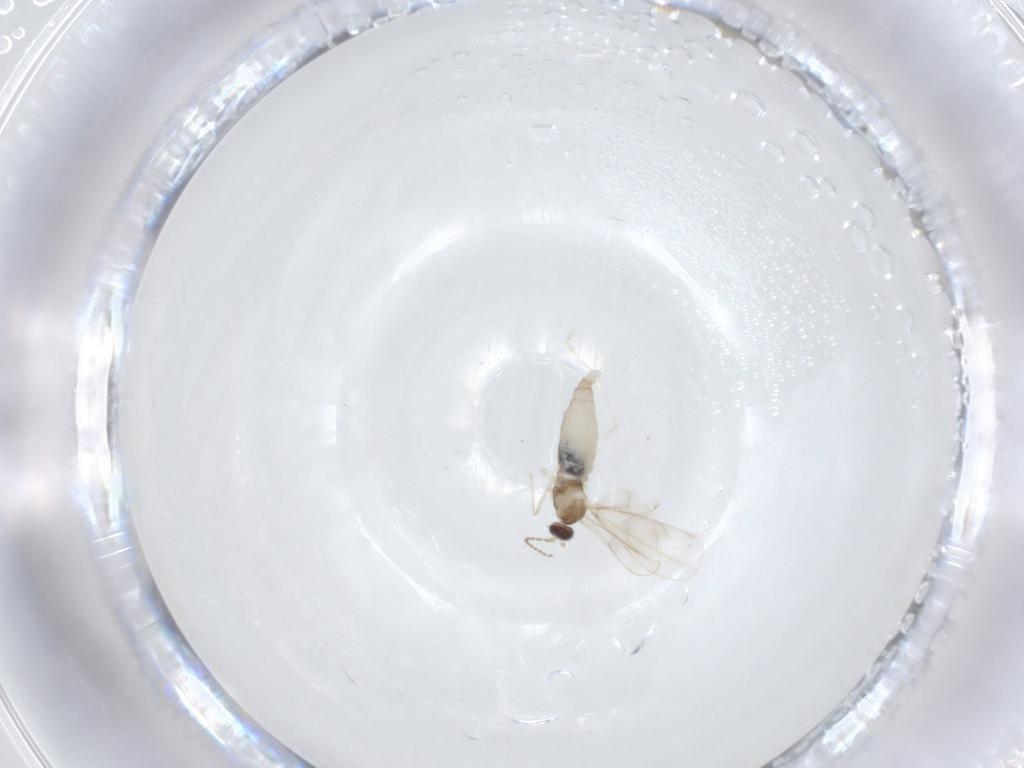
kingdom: Animalia
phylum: Arthropoda
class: Insecta
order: Diptera
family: Cecidomyiidae
